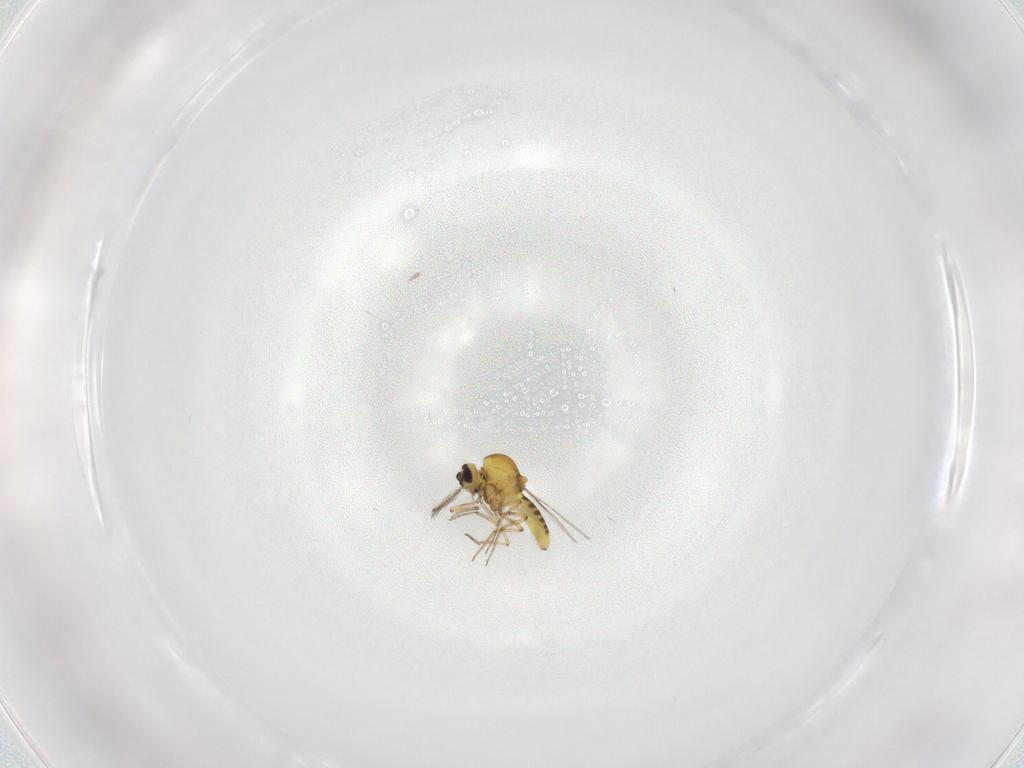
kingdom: Animalia
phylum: Arthropoda
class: Insecta
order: Diptera
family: Ceratopogonidae
